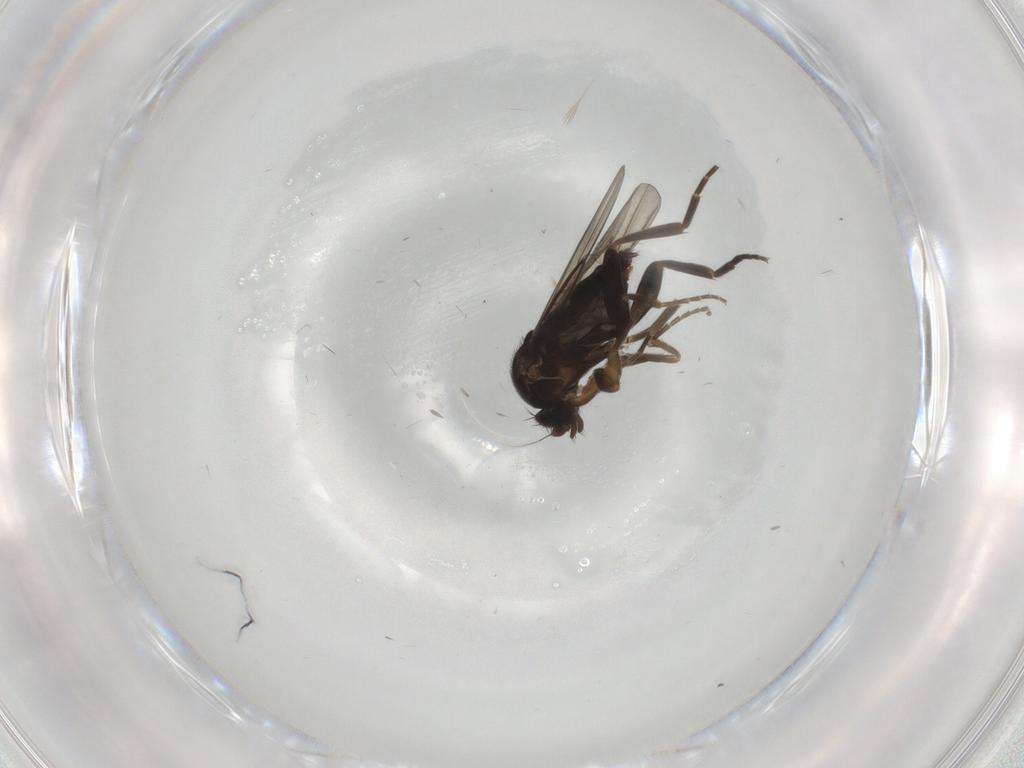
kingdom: Animalia
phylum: Arthropoda
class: Insecta
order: Diptera
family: Phoridae
